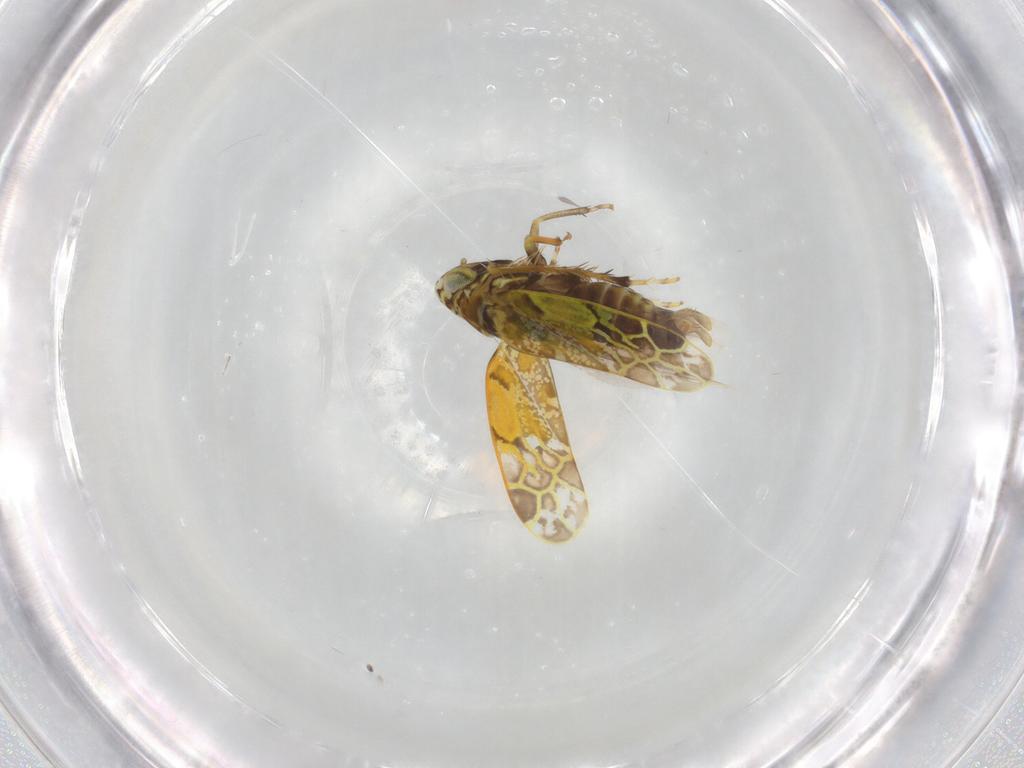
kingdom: Animalia
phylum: Arthropoda
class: Insecta
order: Hemiptera
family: Cicadellidae
